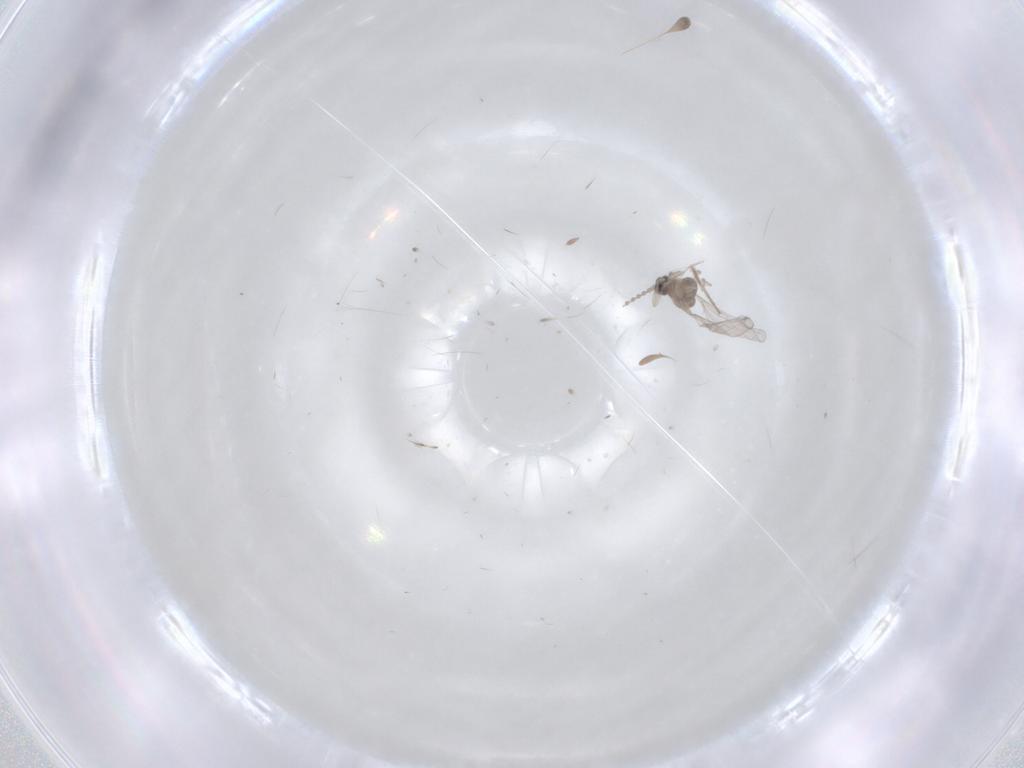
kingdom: Animalia
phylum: Arthropoda
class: Insecta
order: Diptera
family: Cecidomyiidae
